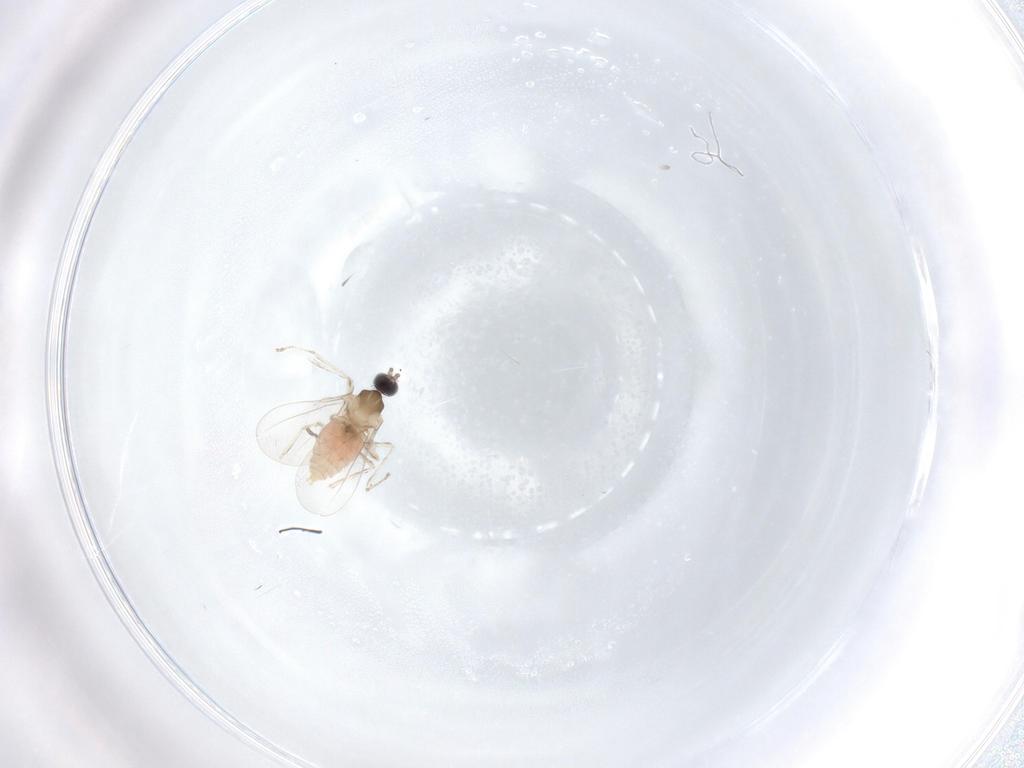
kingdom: Animalia
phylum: Arthropoda
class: Insecta
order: Diptera
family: Cecidomyiidae
